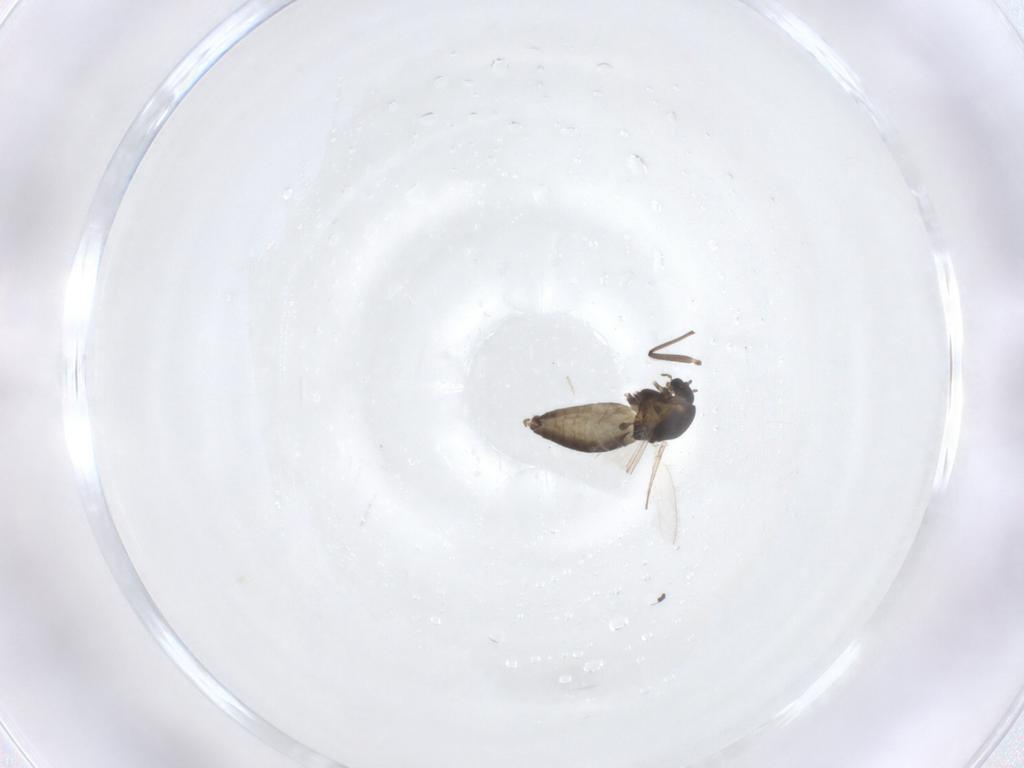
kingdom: Animalia
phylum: Arthropoda
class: Insecta
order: Diptera
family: Chironomidae
